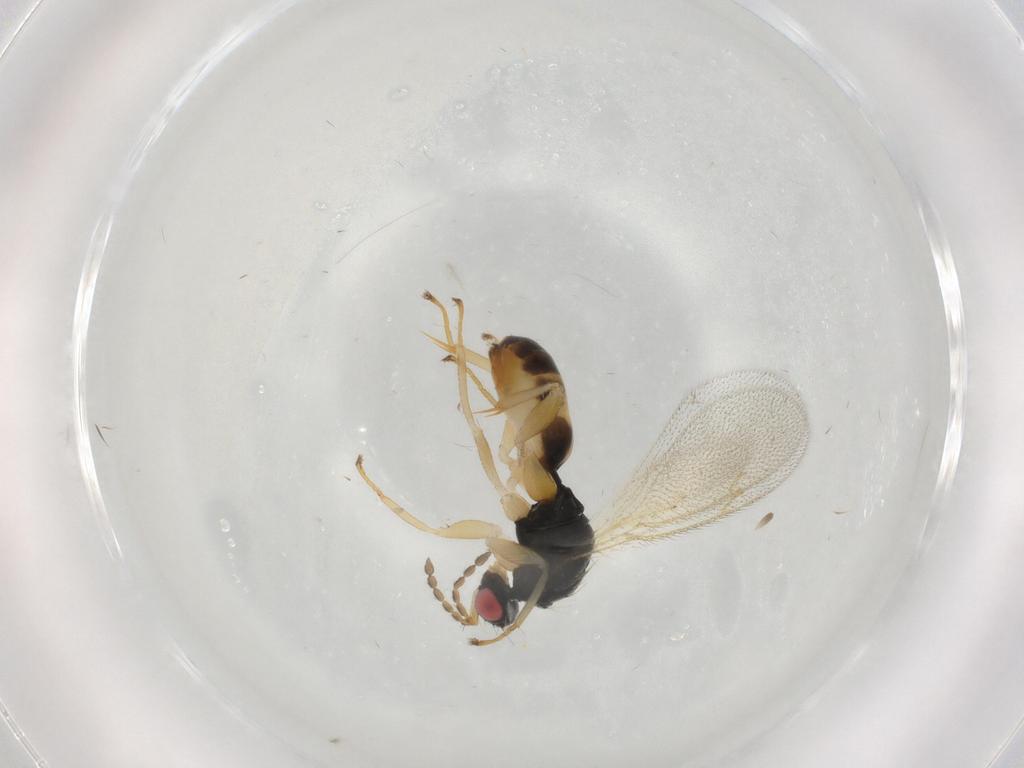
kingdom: Animalia
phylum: Arthropoda
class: Insecta
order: Hymenoptera
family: Eulophidae
